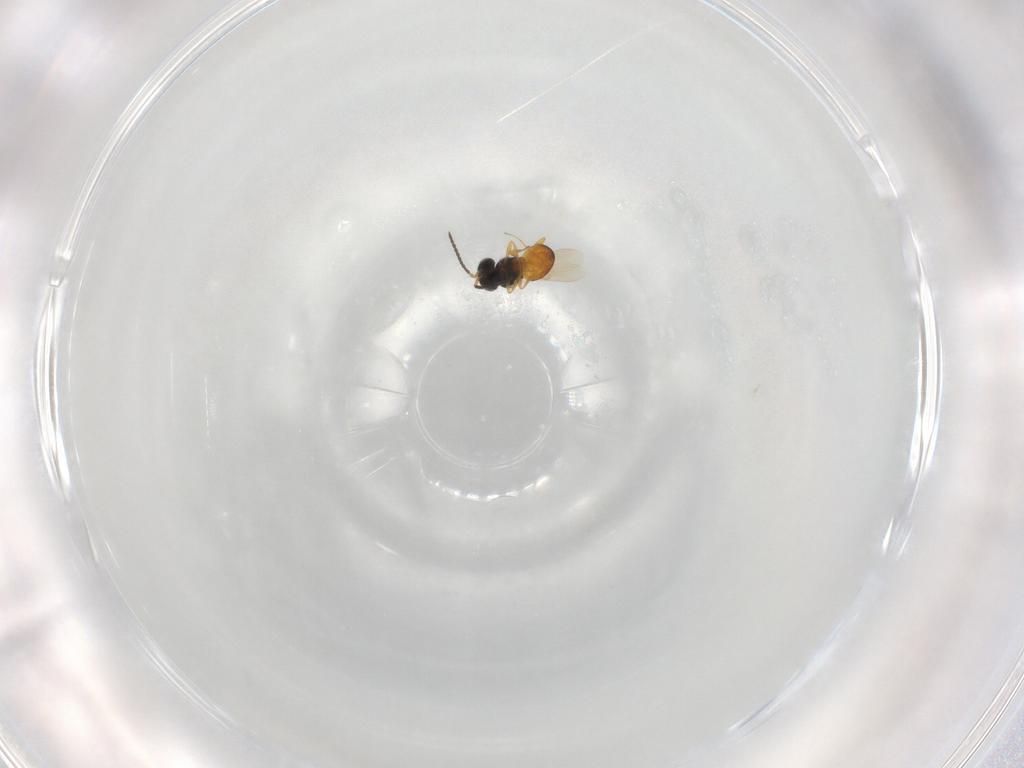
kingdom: Animalia
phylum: Arthropoda
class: Insecta
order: Hymenoptera
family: Scelionidae
